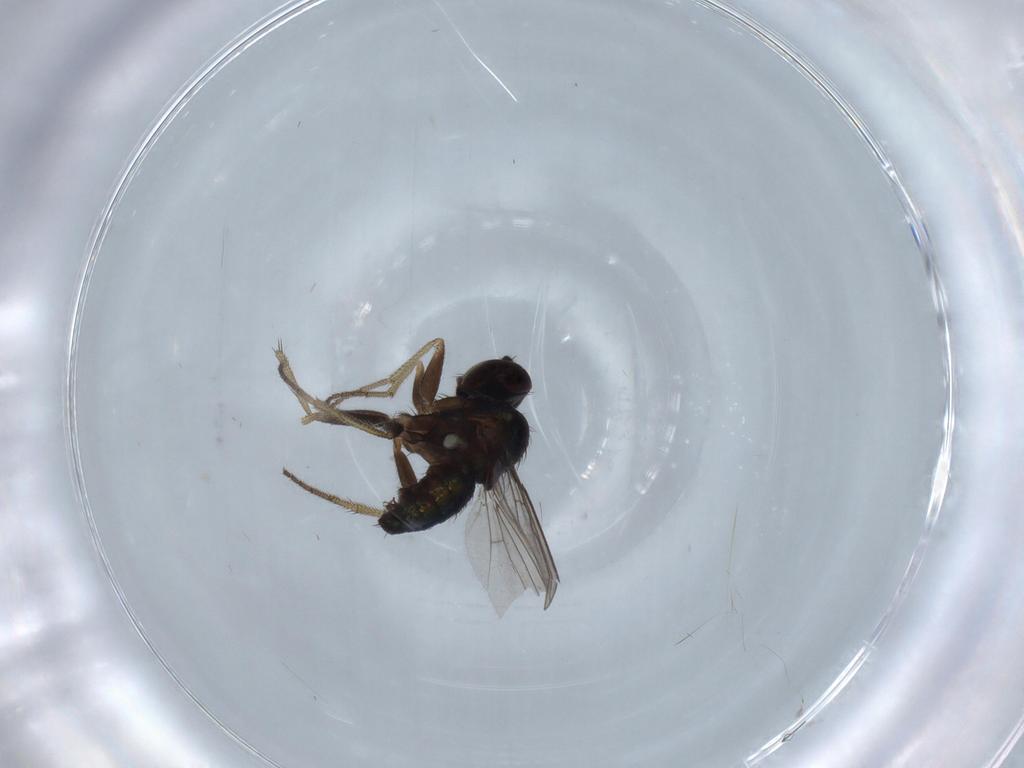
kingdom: Animalia
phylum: Arthropoda
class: Insecta
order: Diptera
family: Dolichopodidae
